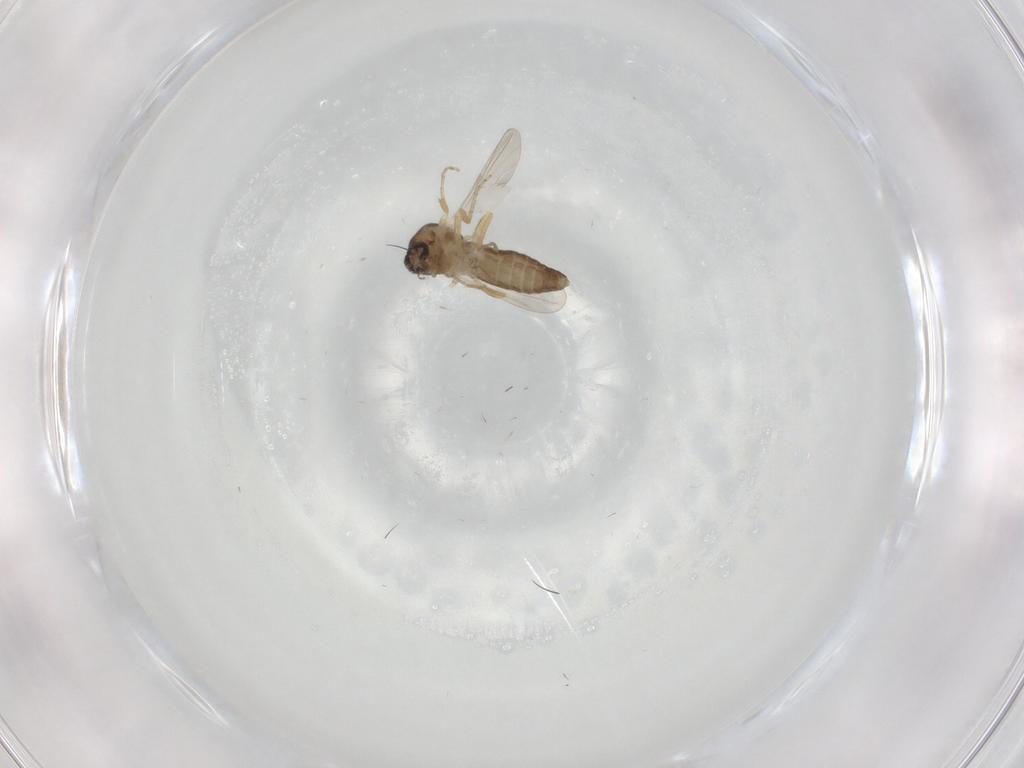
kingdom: Animalia
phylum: Arthropoda
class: Insecta
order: Diptera
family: Ceratopogonidae
